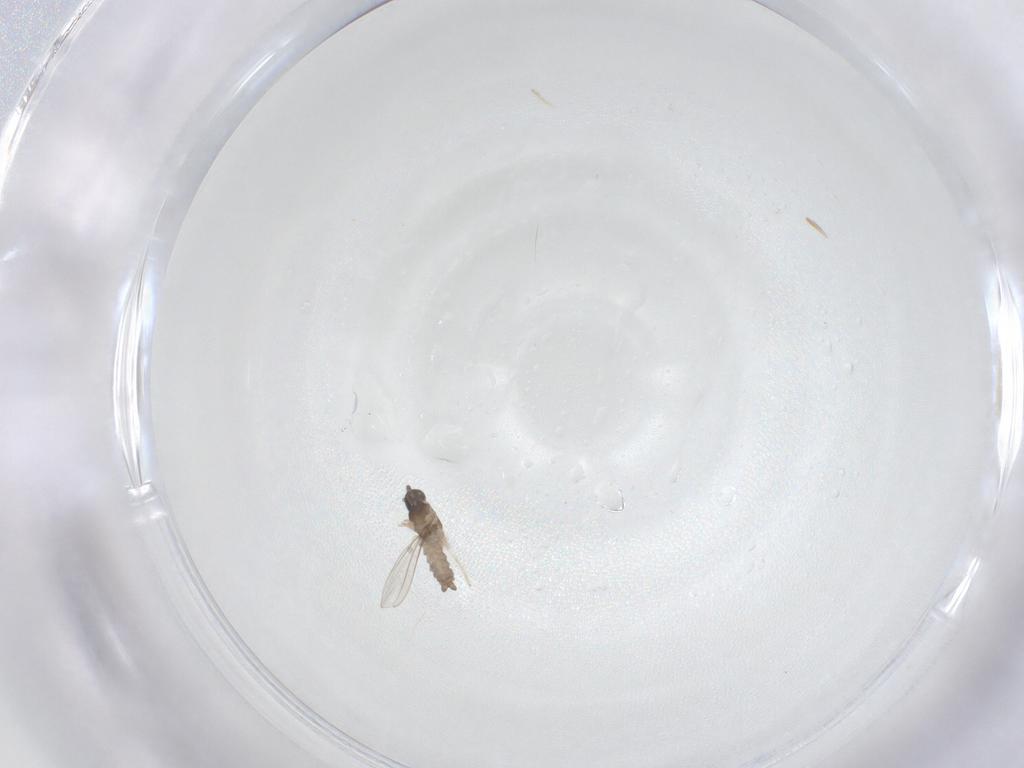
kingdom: Animalia
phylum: Arthropoda
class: Insecta
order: Diptera
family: Cecidomyiidae
